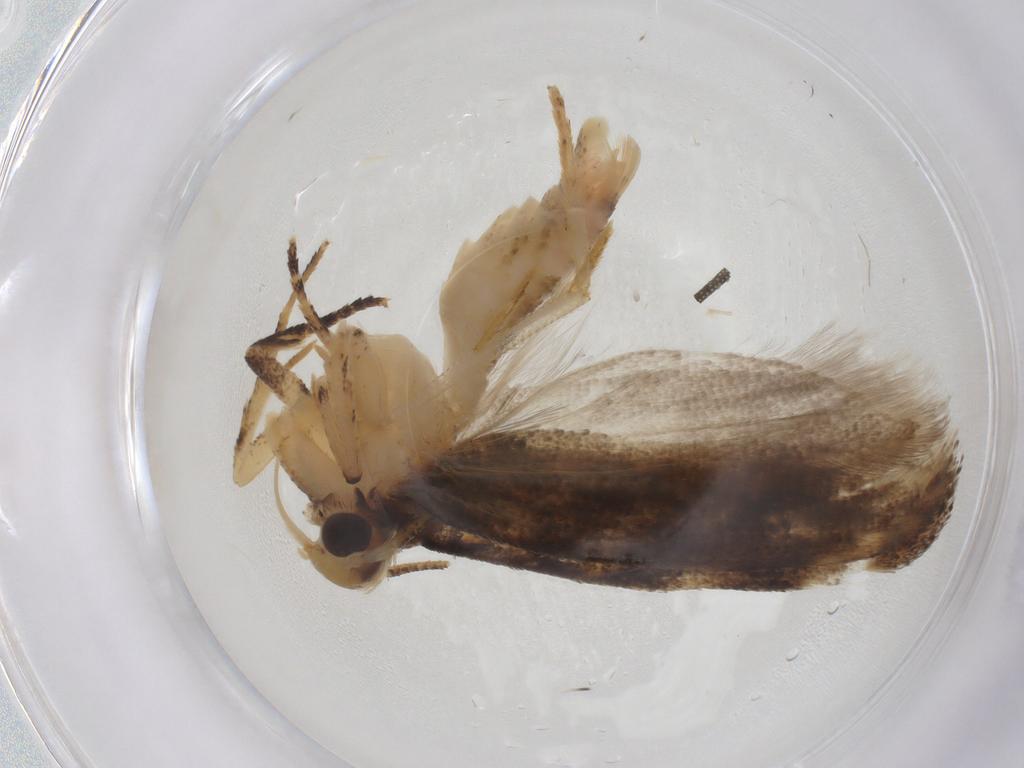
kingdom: Animalia
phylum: Arthropoda
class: Insecta
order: Lepidoptera
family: Gelechiidae
